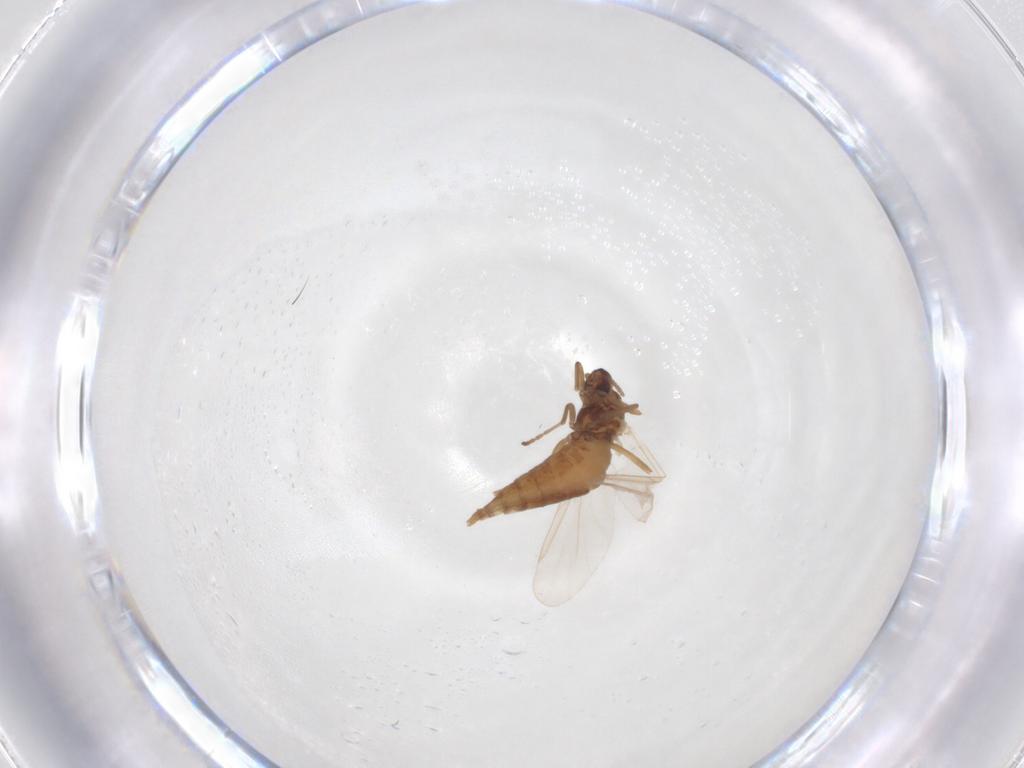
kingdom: Animalia
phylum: Arthropoda
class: Insecta
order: Diptera
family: Cecidomyiidae
